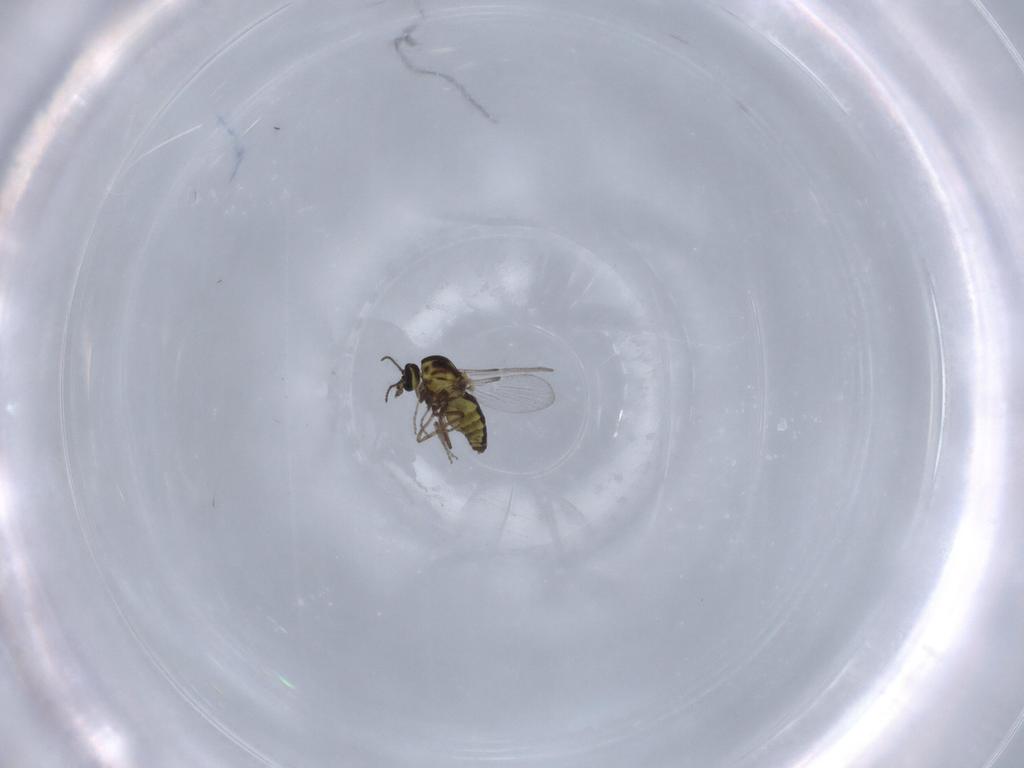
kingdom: Animalia
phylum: Arthropoda
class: Insecta
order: Diptera
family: Ceratopogonidae
